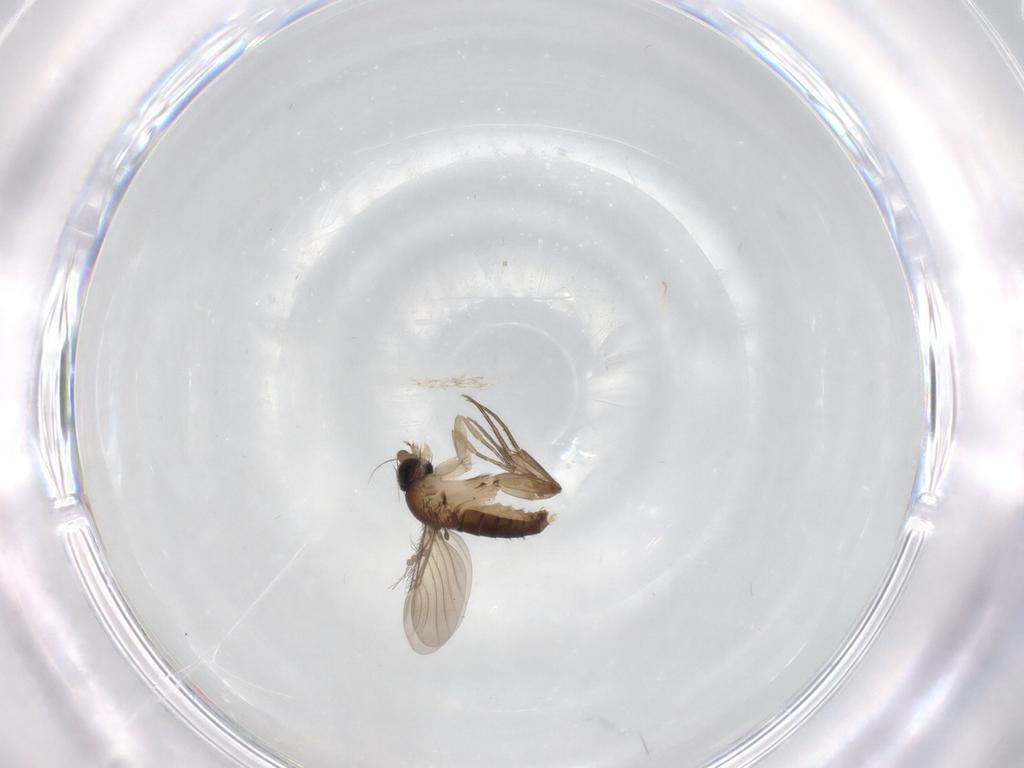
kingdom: Animalia
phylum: Arthropoda
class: Insecta
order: Diptera
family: Phoridae
